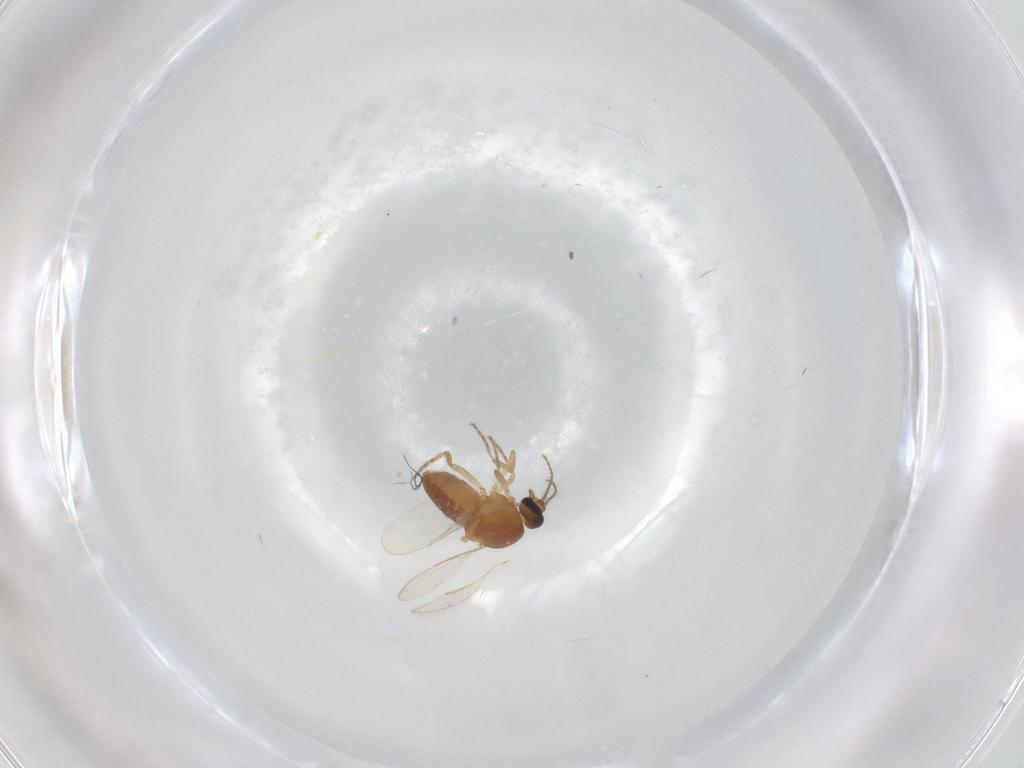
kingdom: Animalia
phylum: Arthropoda
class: Insecta
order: Diptera
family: Ceratopogonidae
